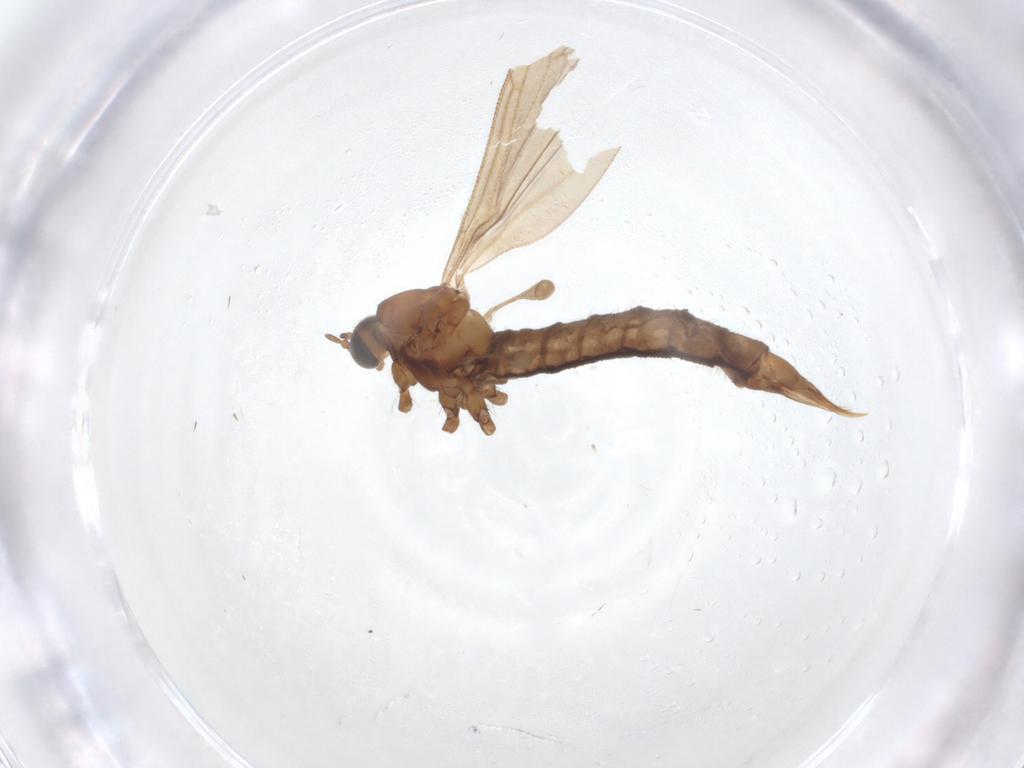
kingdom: Animalia
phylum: Arthropoda
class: Insecta
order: Diptera
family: Limoniidae
